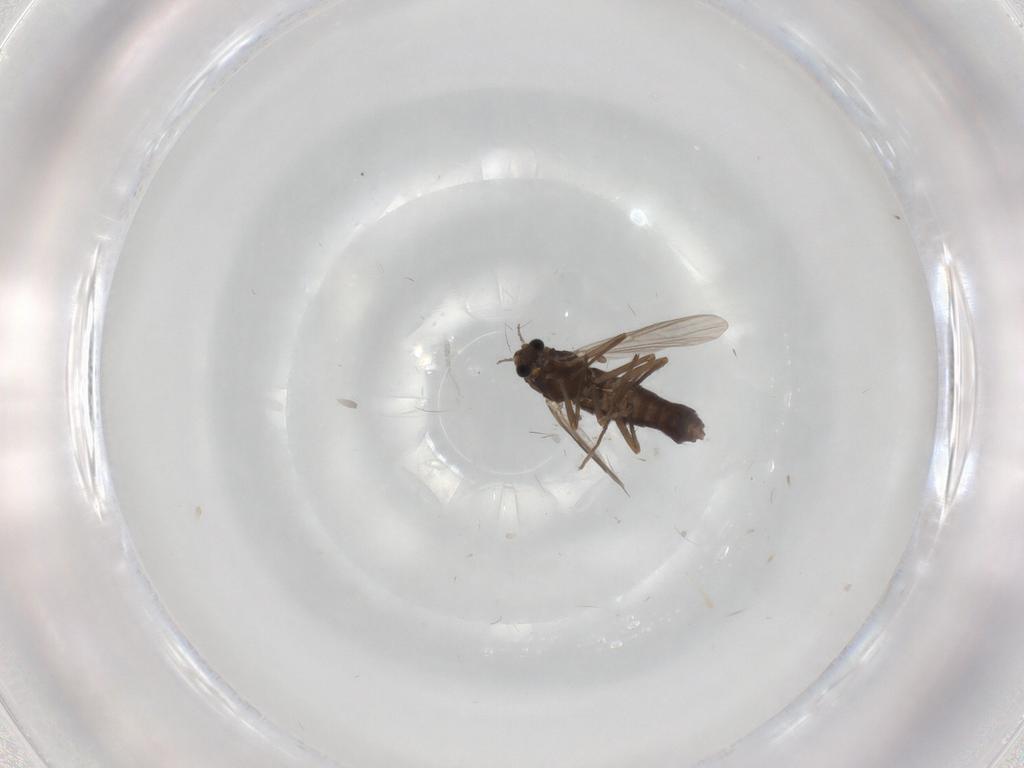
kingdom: Animalia
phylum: Arthropoda
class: Insecta
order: Diptera
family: Chironomidae
